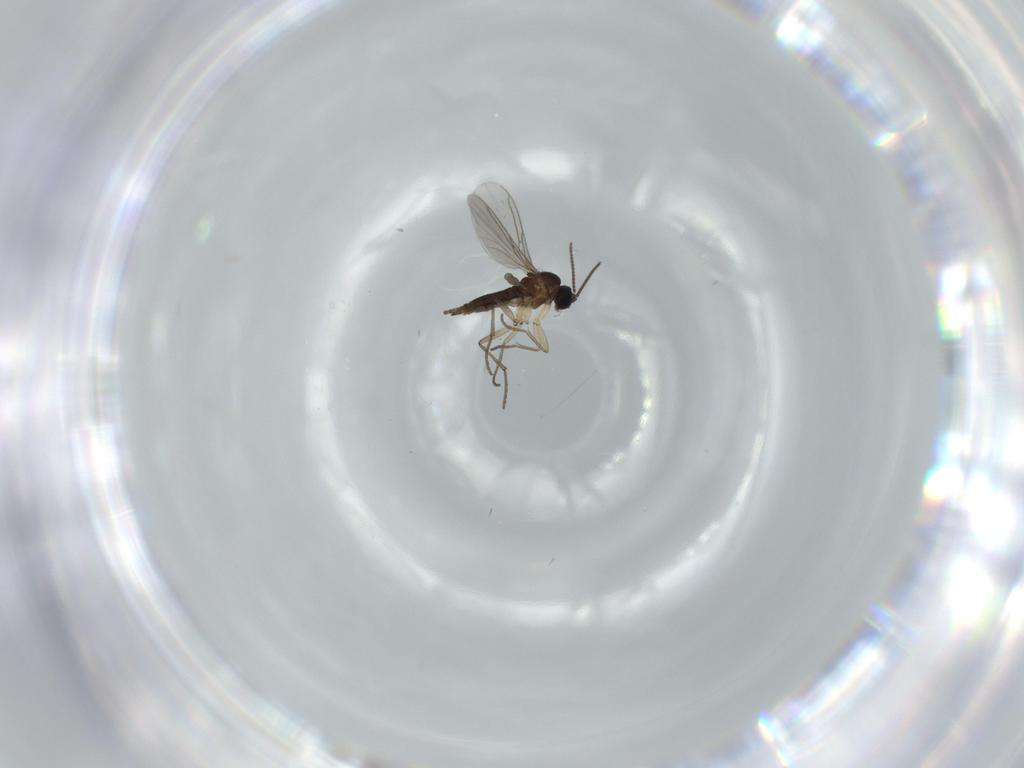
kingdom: Animalia
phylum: Arthropoda
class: Insecta
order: Diptera
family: Sciaridae
